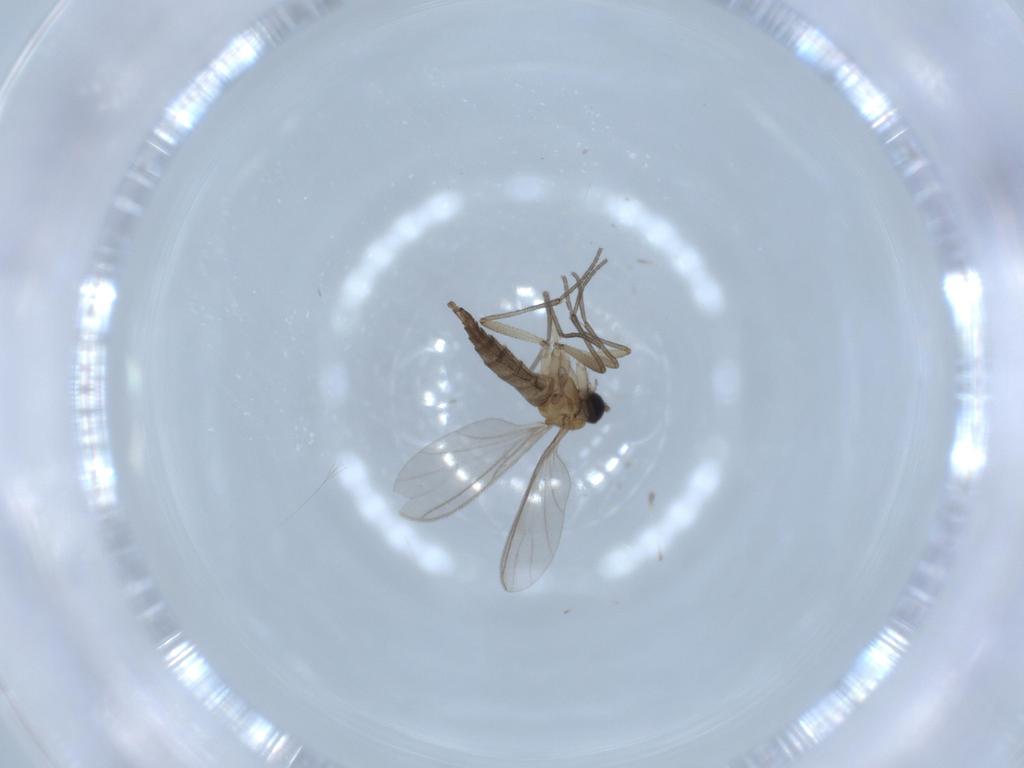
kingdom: Animalia
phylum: Arthropoda
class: Insecta
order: Diptera
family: Sciaridae
